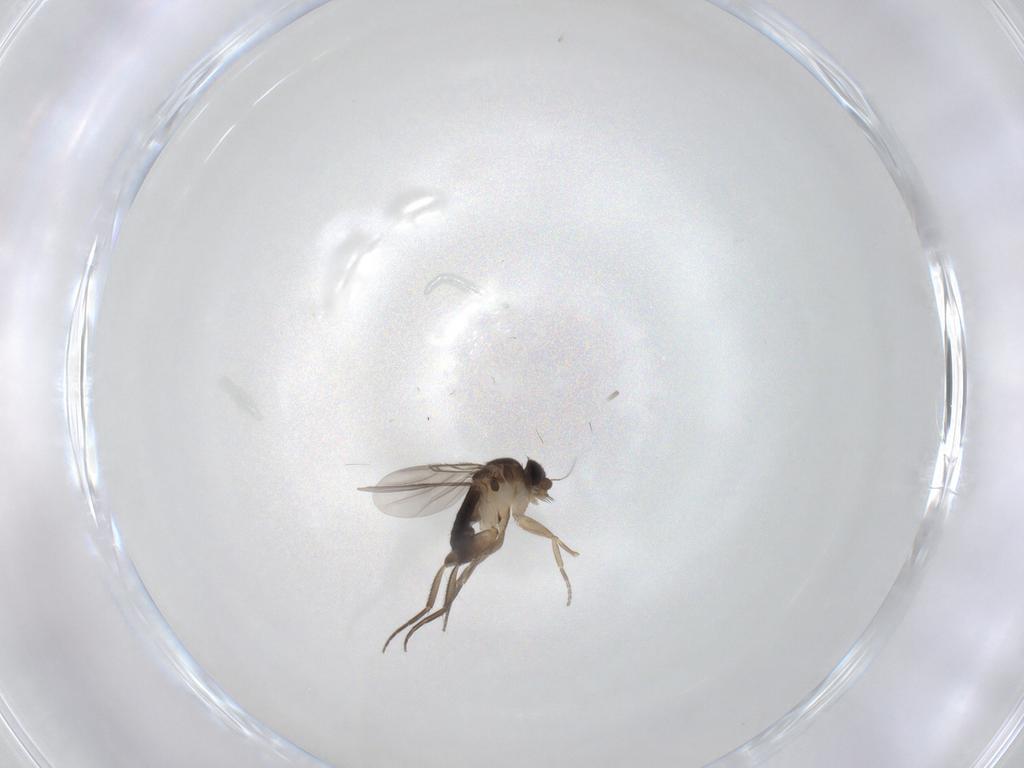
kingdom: Animalia
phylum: Arthropoda
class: Insecta
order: Diptera
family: Phoridae
